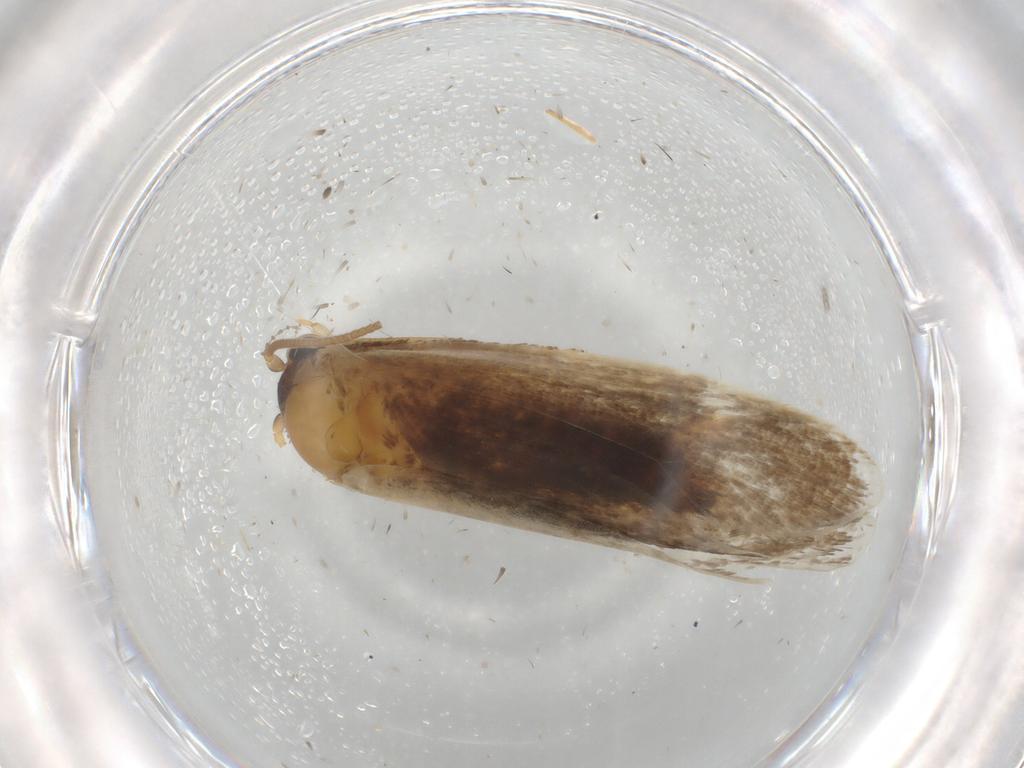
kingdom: Animalia
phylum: Arthropoda
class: Insecta
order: Lepidoptera
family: Nepticulidae
